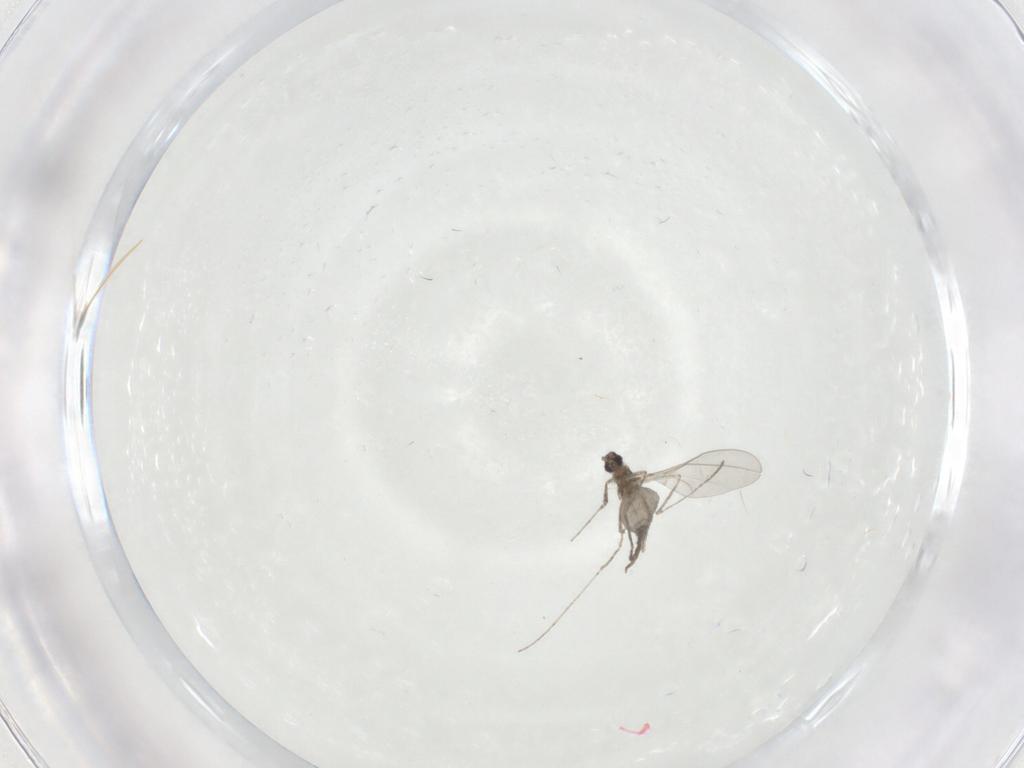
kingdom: Animalia
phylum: Arthropoda
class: Insecta
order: Diptera
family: Cecidomyiidae
